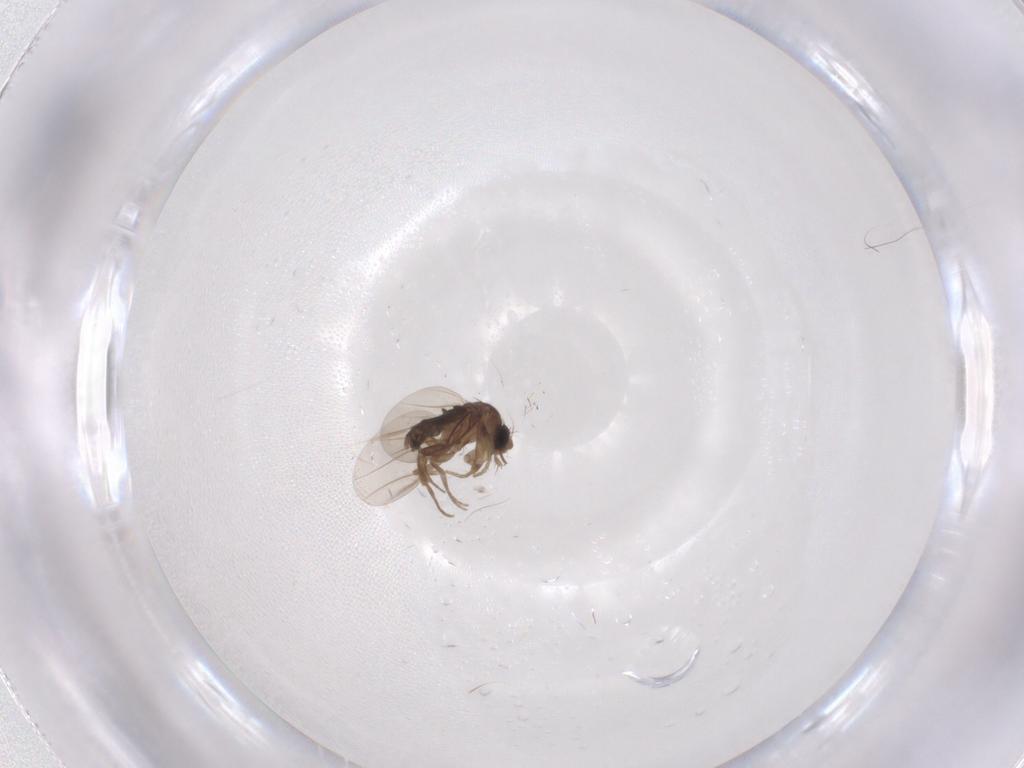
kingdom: Animalia
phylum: Arthropoda
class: Insecta
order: Diptera
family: Phoridae
